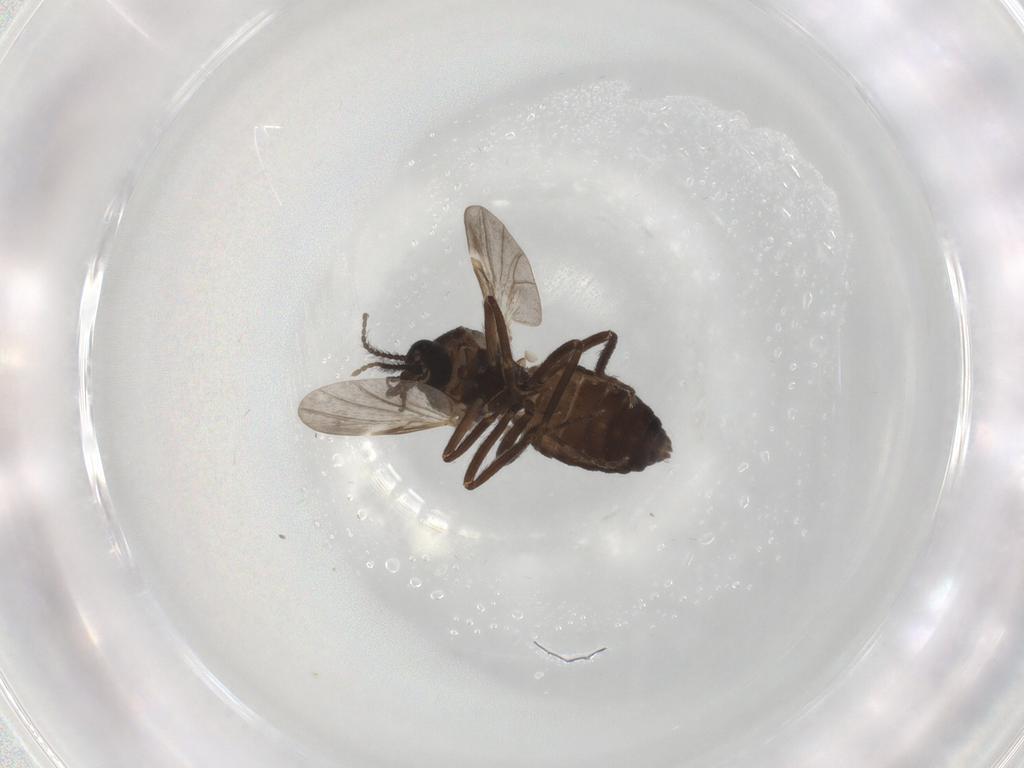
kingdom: Animalia
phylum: Arthropoda
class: Insecta
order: Diptera
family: Ceratopogonidae
